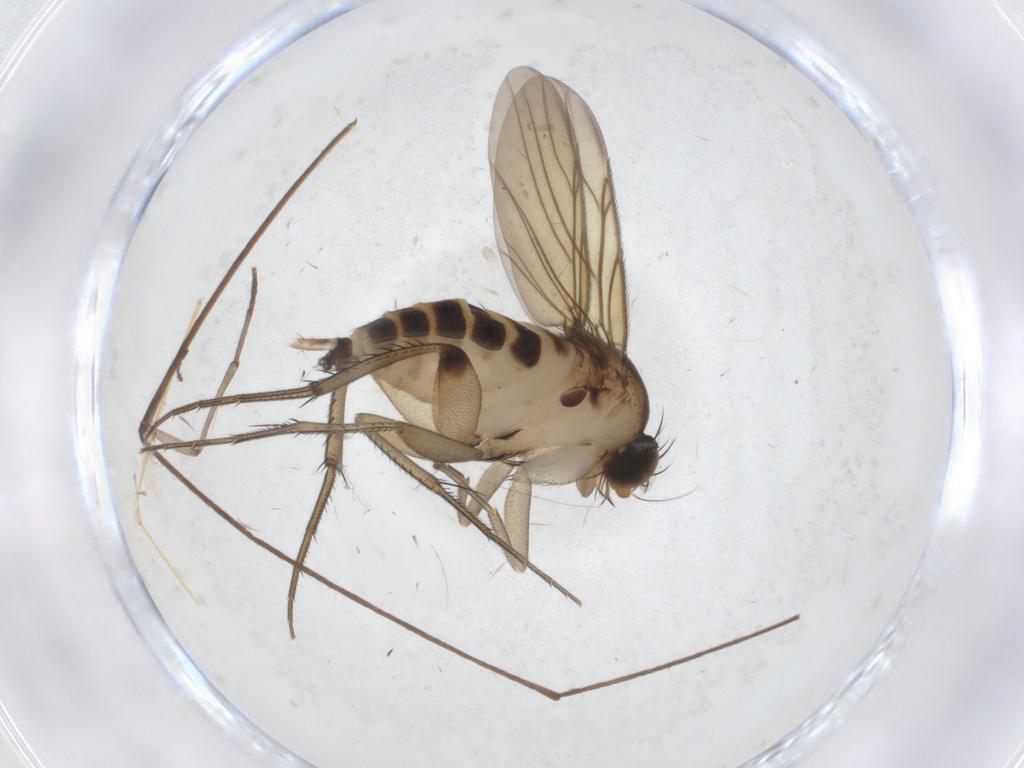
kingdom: Animalia
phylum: Arthropoda
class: Insecta
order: Diptera
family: Phoridae
